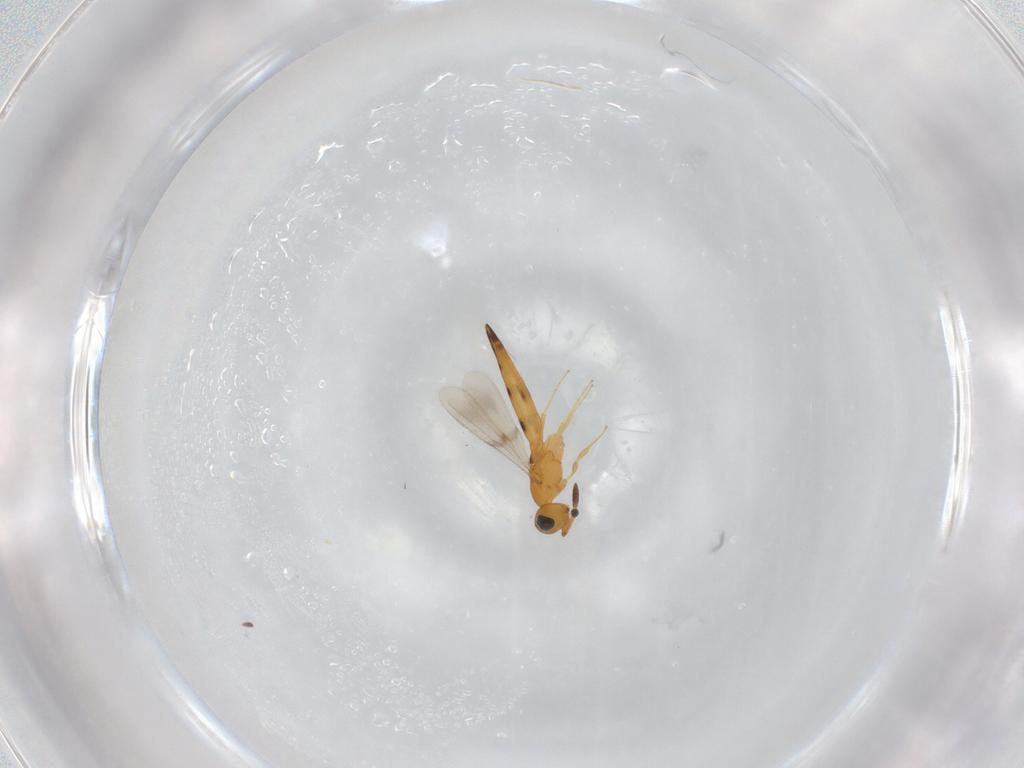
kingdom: Animalia
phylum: Arthropoda
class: Insecta
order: Hymenoptera
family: Scelionidae
